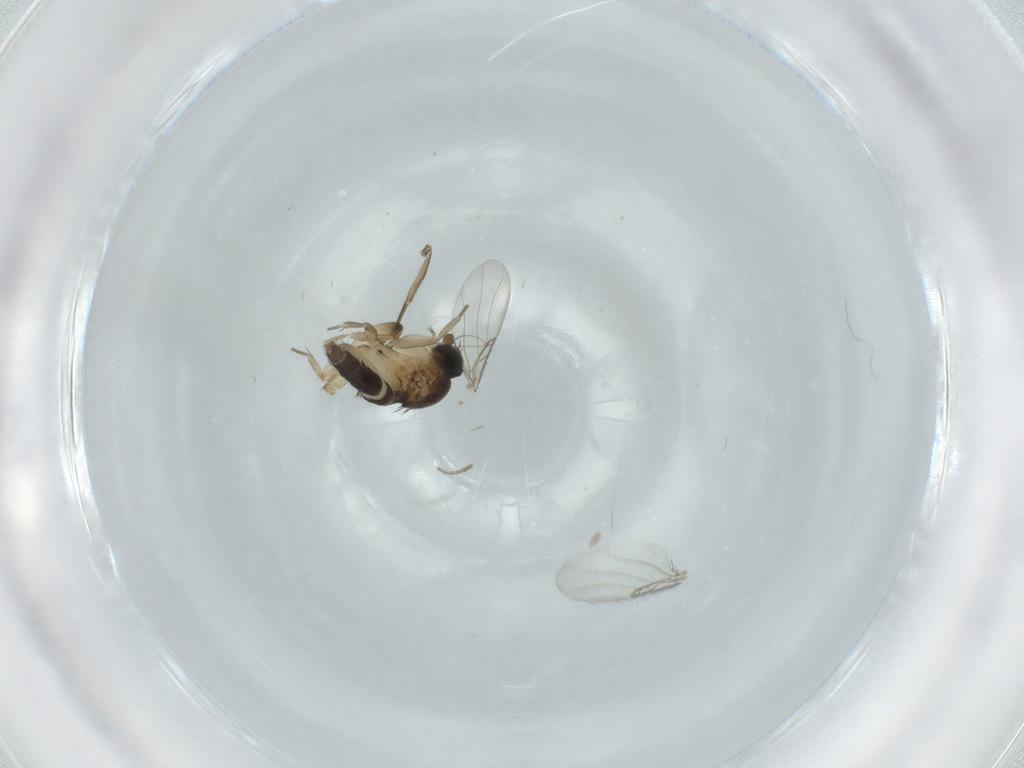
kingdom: Animalia
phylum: Arthropoda
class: Insecta
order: Diptera
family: Phoridae
